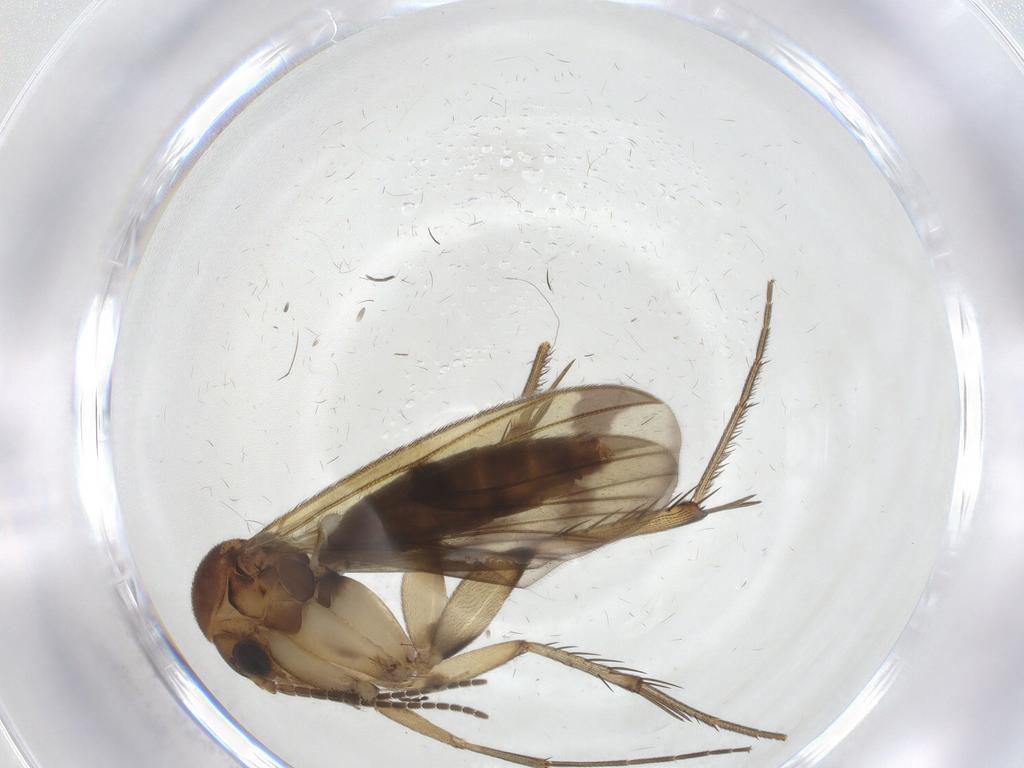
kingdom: Animalia
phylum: Arthropoda
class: Insecta
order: Diptera
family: Chironomidae
